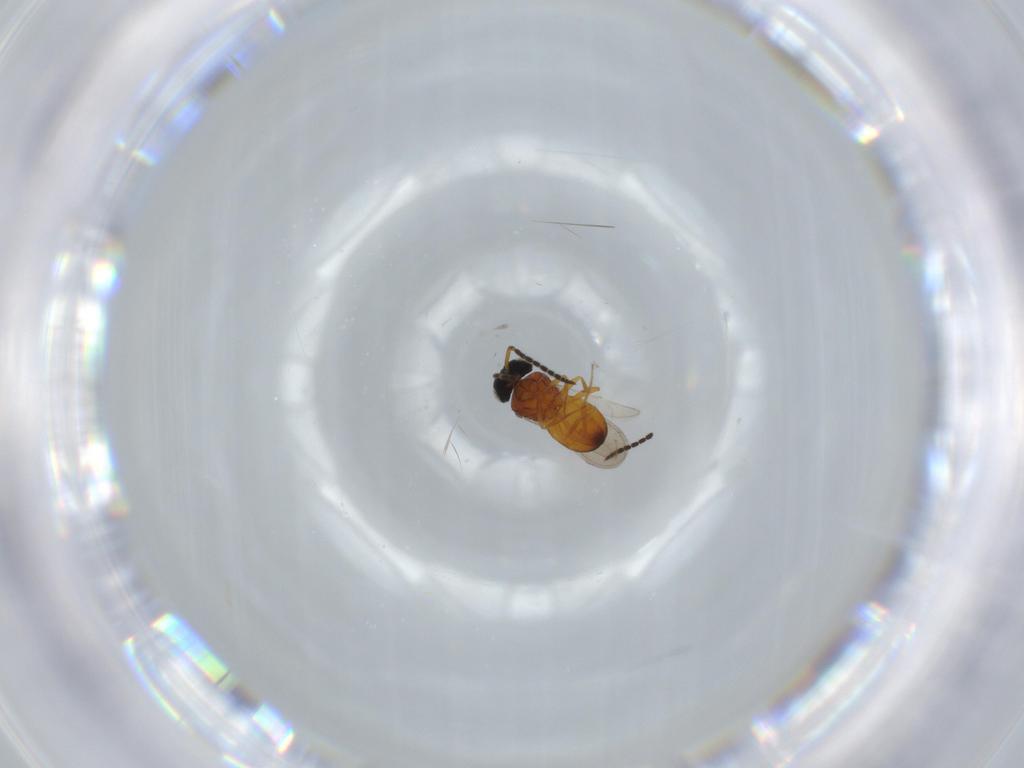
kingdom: Animalia
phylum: Arthropoda
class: Insecta
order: Hymenoptera
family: Scelionidae
